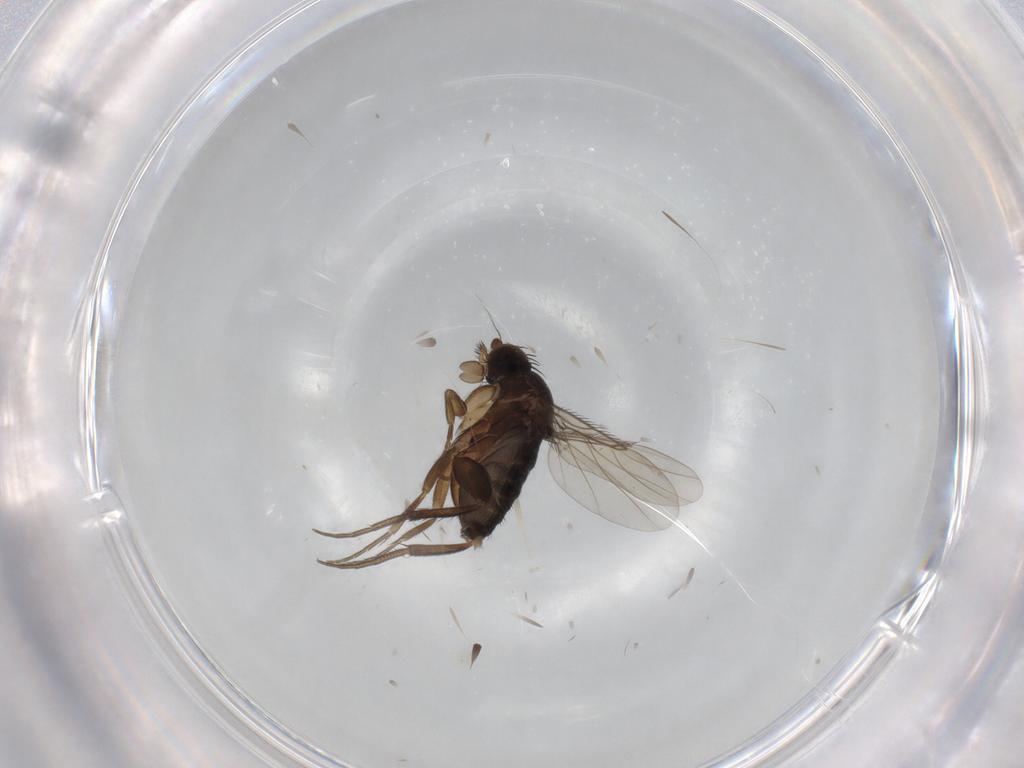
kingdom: Animalia
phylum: Arthropoda
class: Insecta
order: Diptera
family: Phoridae
